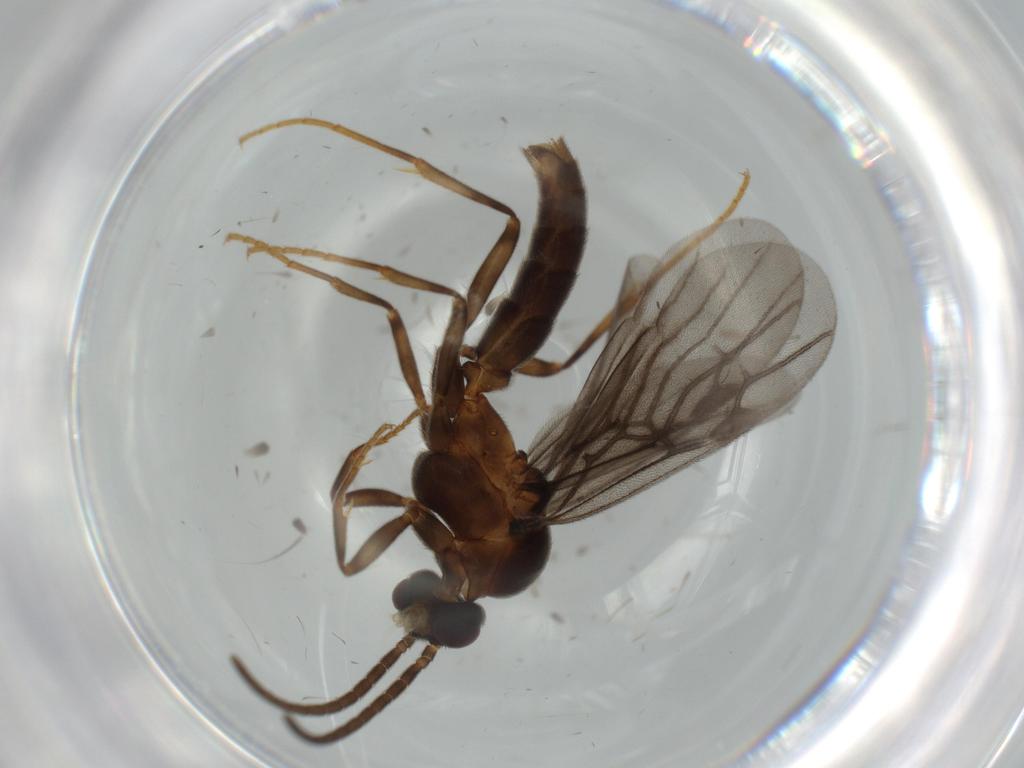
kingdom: Animalia
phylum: Arthropoda
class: Insecta
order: Hymenoptera
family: Formicidae
